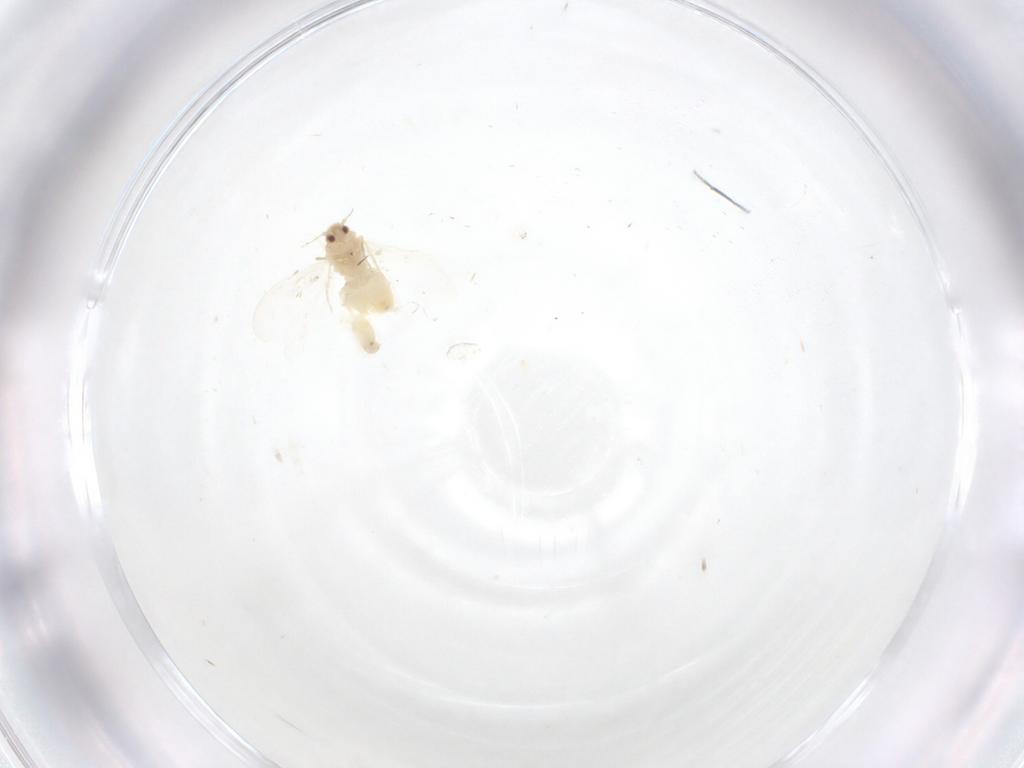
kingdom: Animalia
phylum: Arthropoda
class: Insecta
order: Hemiptera
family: Aleyrodidae
